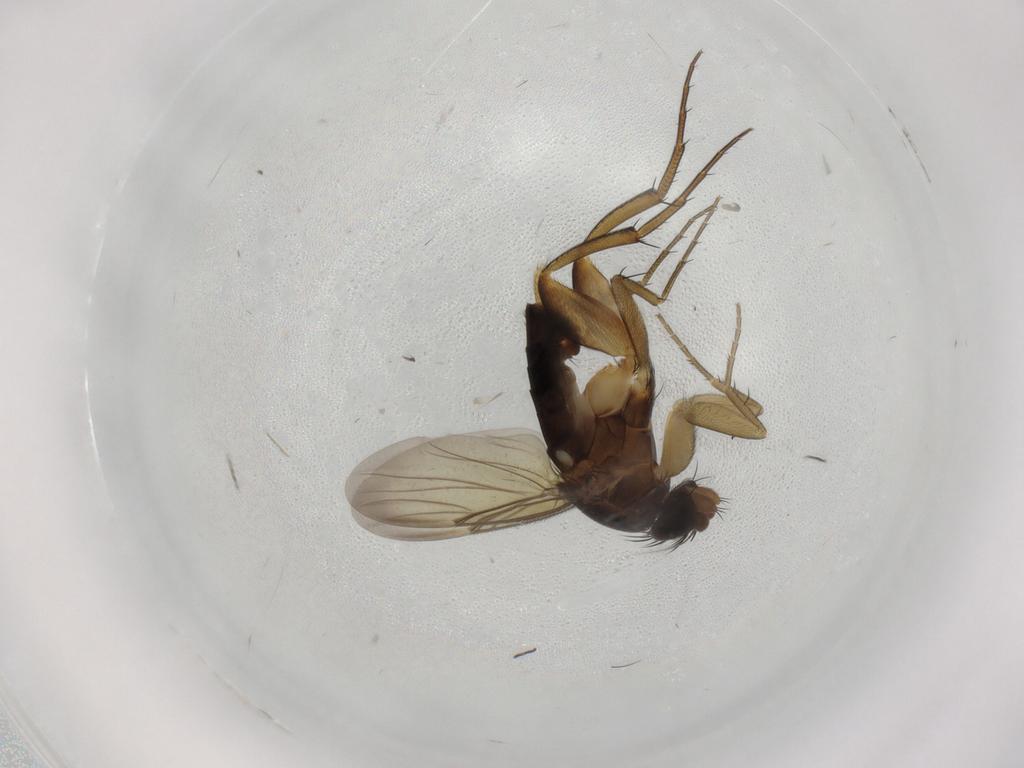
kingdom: Animalia
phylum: Arthropoda
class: Insecta
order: Diptera
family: Phoridae
